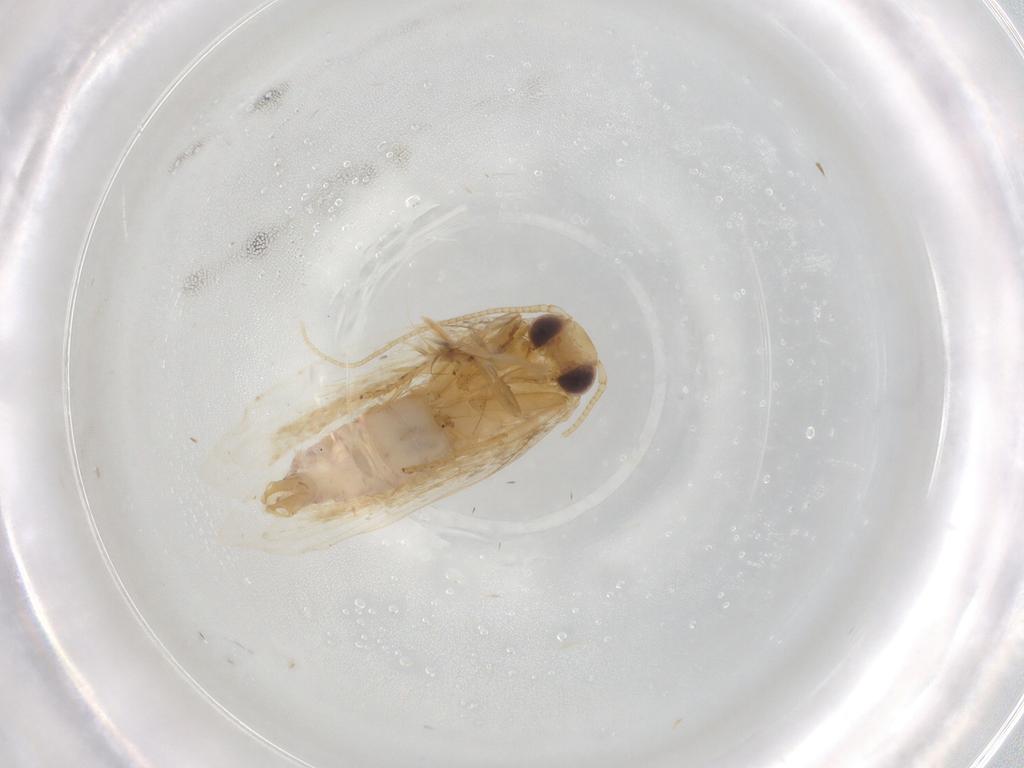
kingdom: Animalia
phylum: Arthropoda
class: Insecta
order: Lepidoptera
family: Depressariidae
